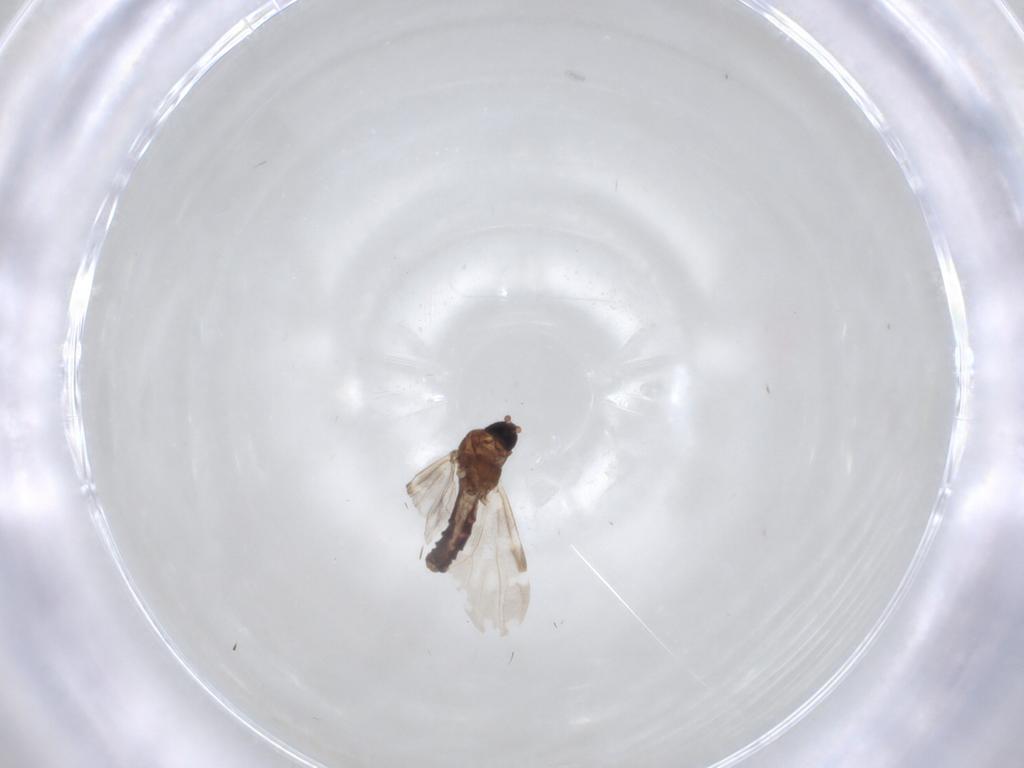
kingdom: Animalia
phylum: Arthropoda
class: Insecta
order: Diptera
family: Ceratopogonidae
